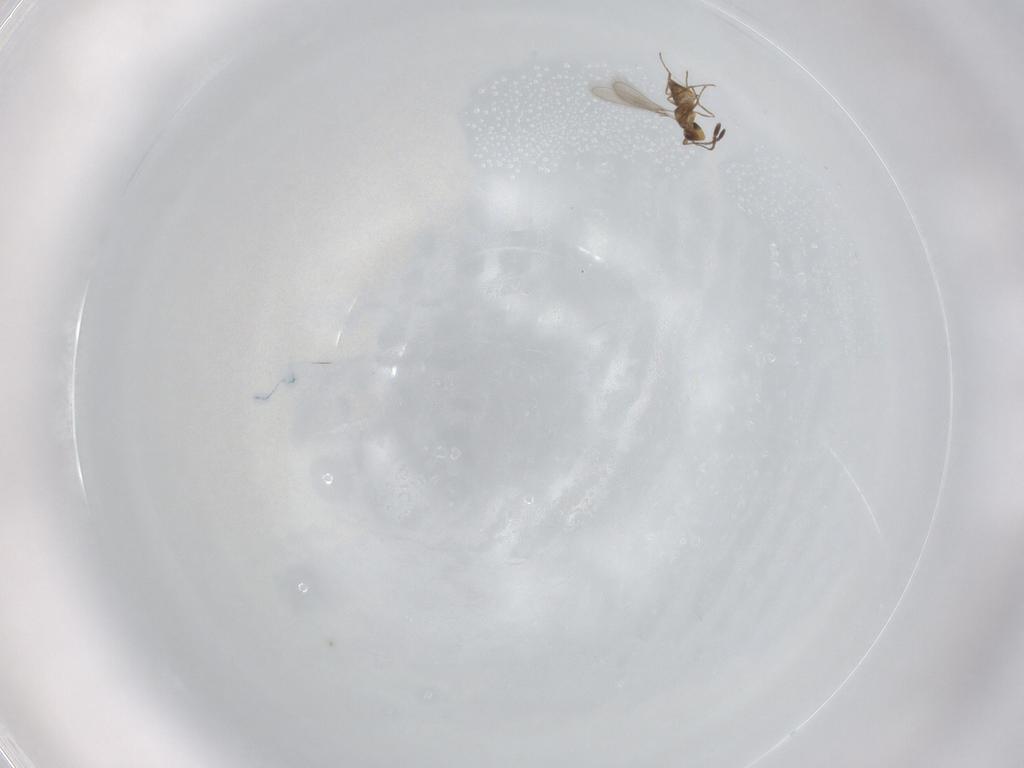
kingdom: Animalia
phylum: Arthropoda
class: Insecta
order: Hymenoptera
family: Mymaridae
